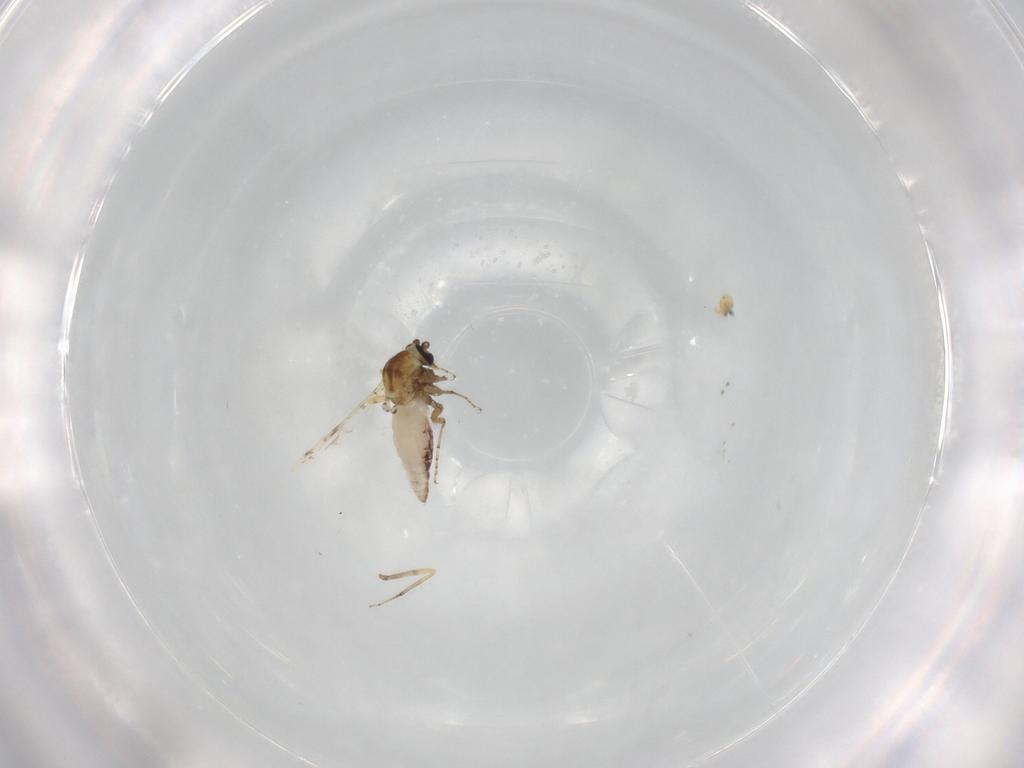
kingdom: Animalia
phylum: Arthropoda
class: Insecta
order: Diptera
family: Ceratopogonidae
